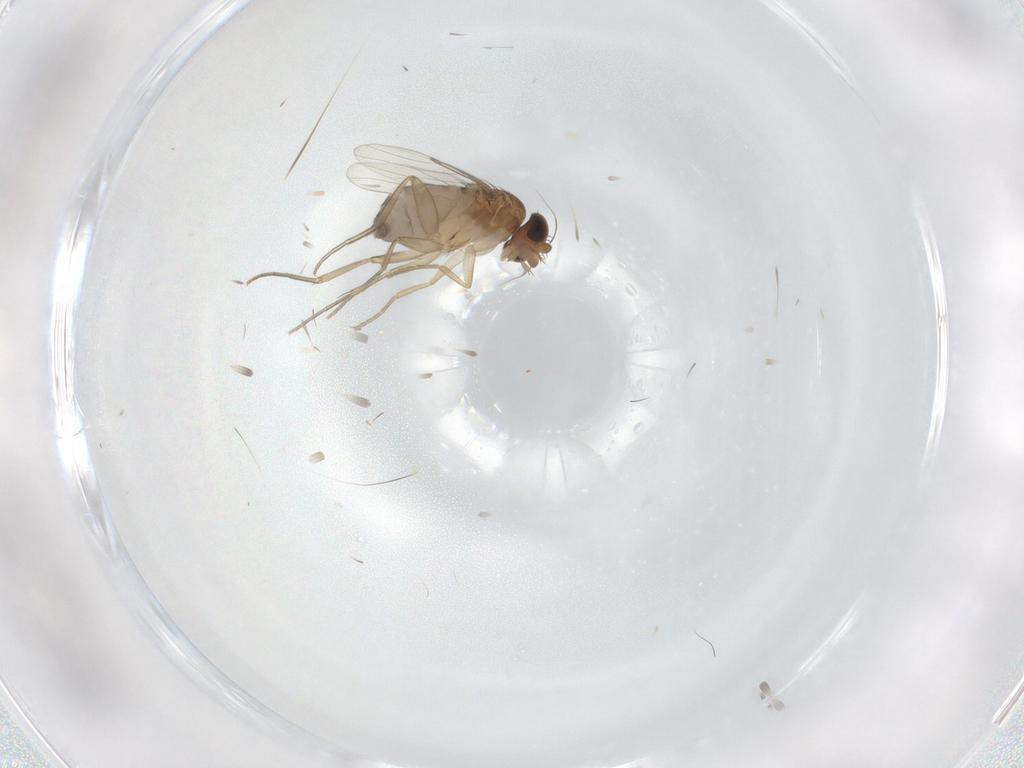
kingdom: Animalia
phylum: Arthropoda
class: Insecta
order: Diptera
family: Phoridae
